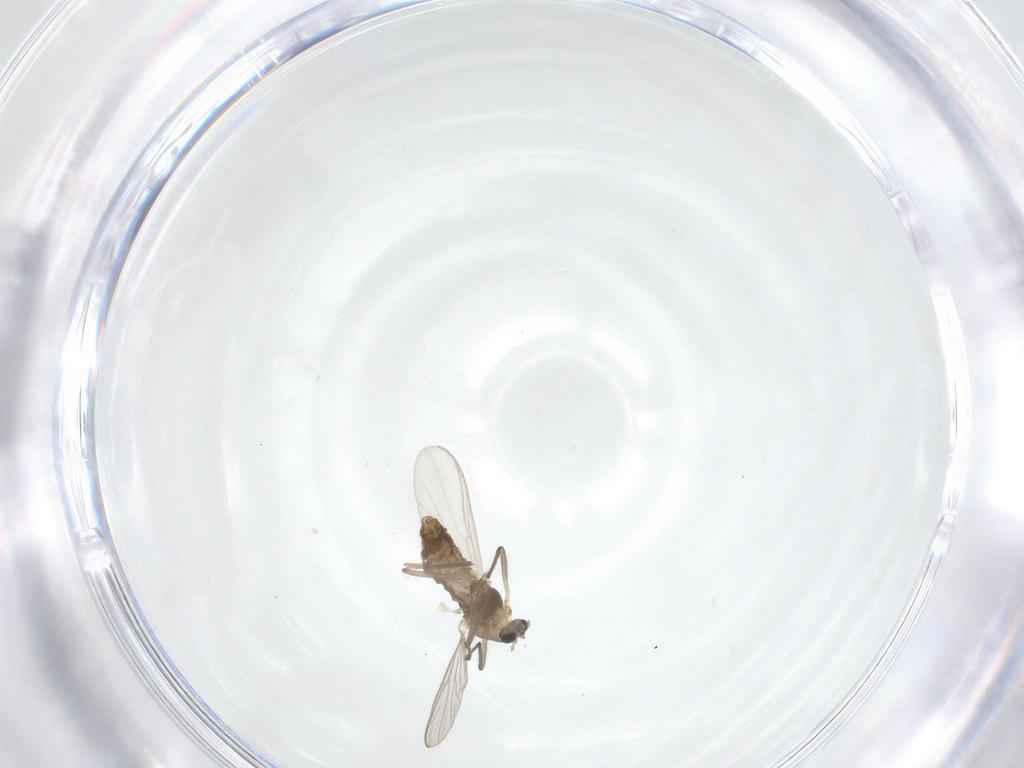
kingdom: Animalia
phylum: Arthropoda
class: Insecta
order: Diptera
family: Chironomidae
